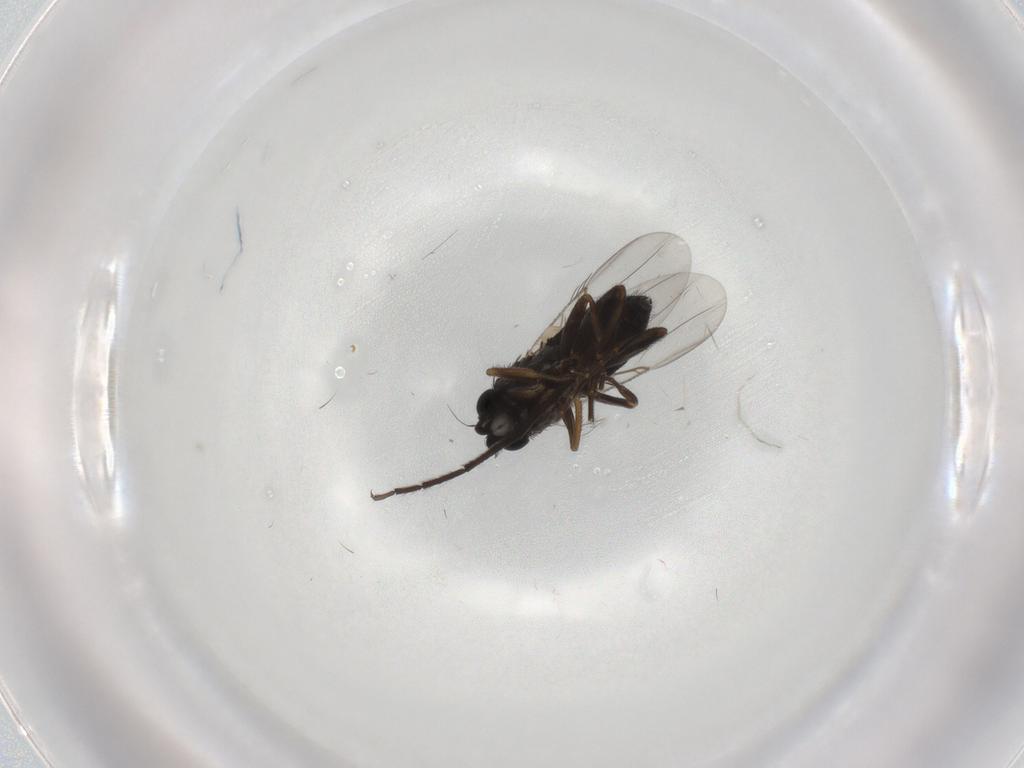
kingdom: Animalia
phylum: Arthropoda
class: Insecta
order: Diptera
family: Phoridae
